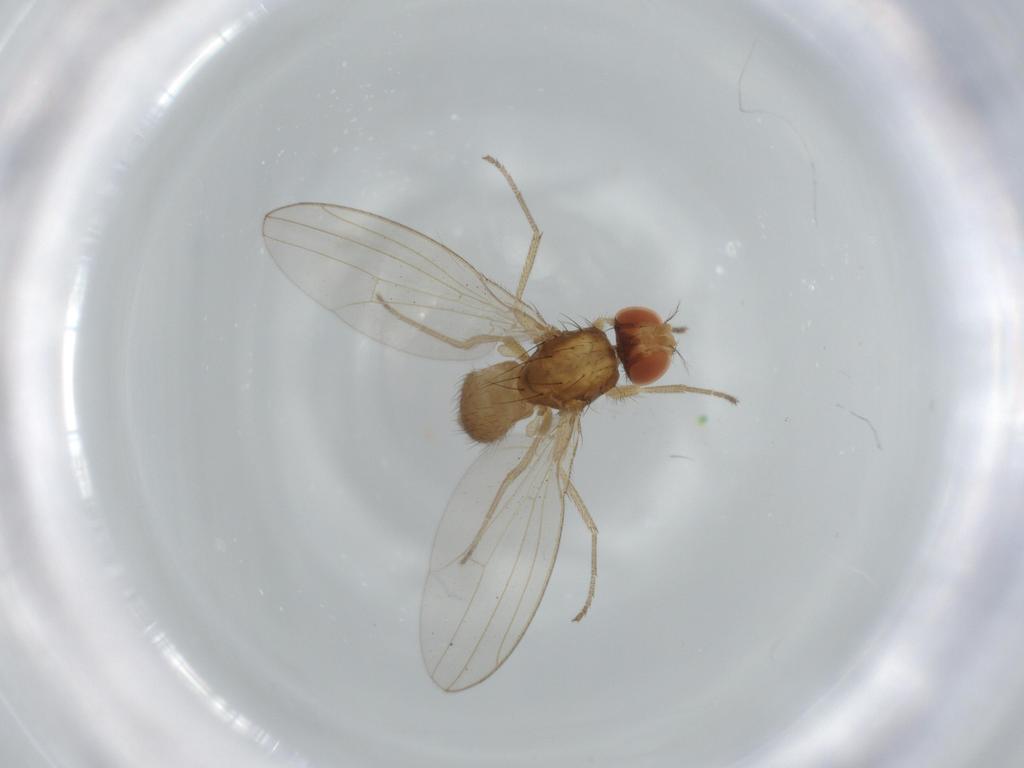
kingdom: Animalia
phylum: Arthropoda
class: Insecta
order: Diptera
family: Drosophilidae
